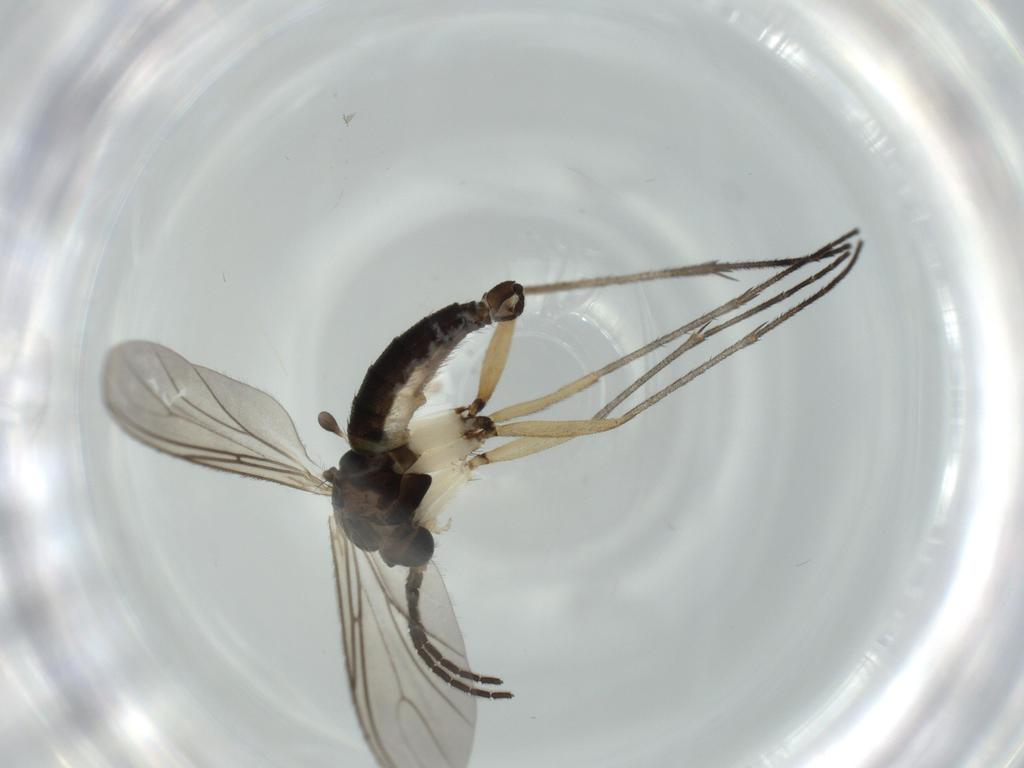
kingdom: Animalia
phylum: Arthropoda
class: Insecta
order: Diptera
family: Sciaridae
